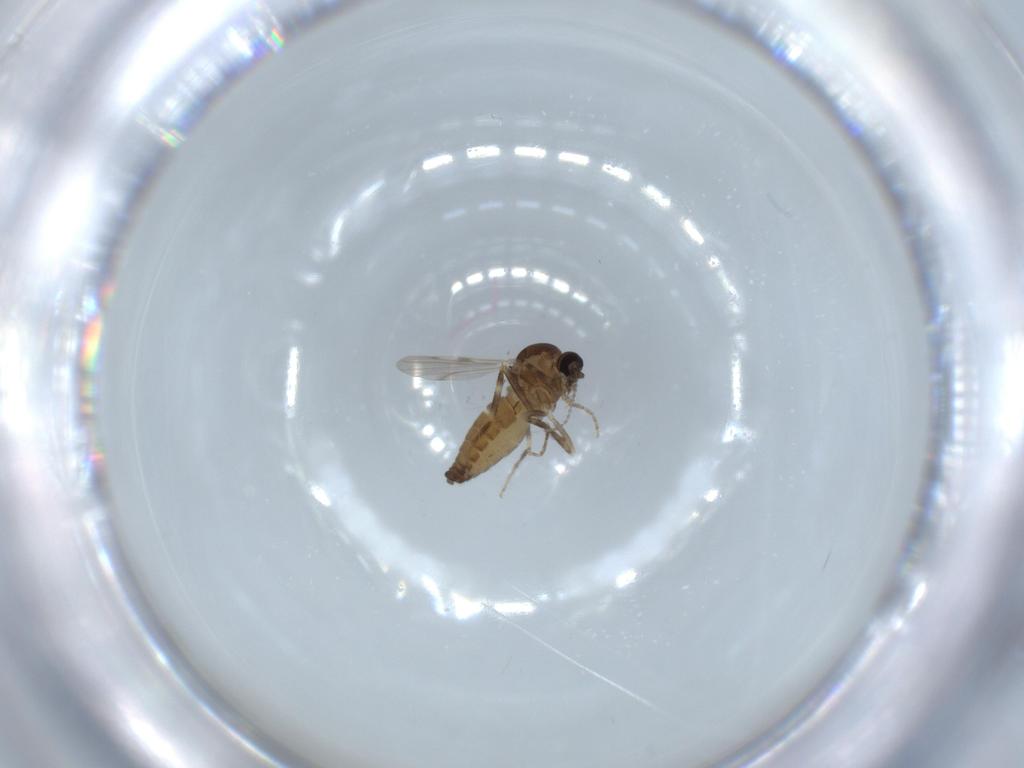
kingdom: Animalia
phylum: Arthropoda
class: Insecta
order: Diptera
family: Ceratopogonidae
